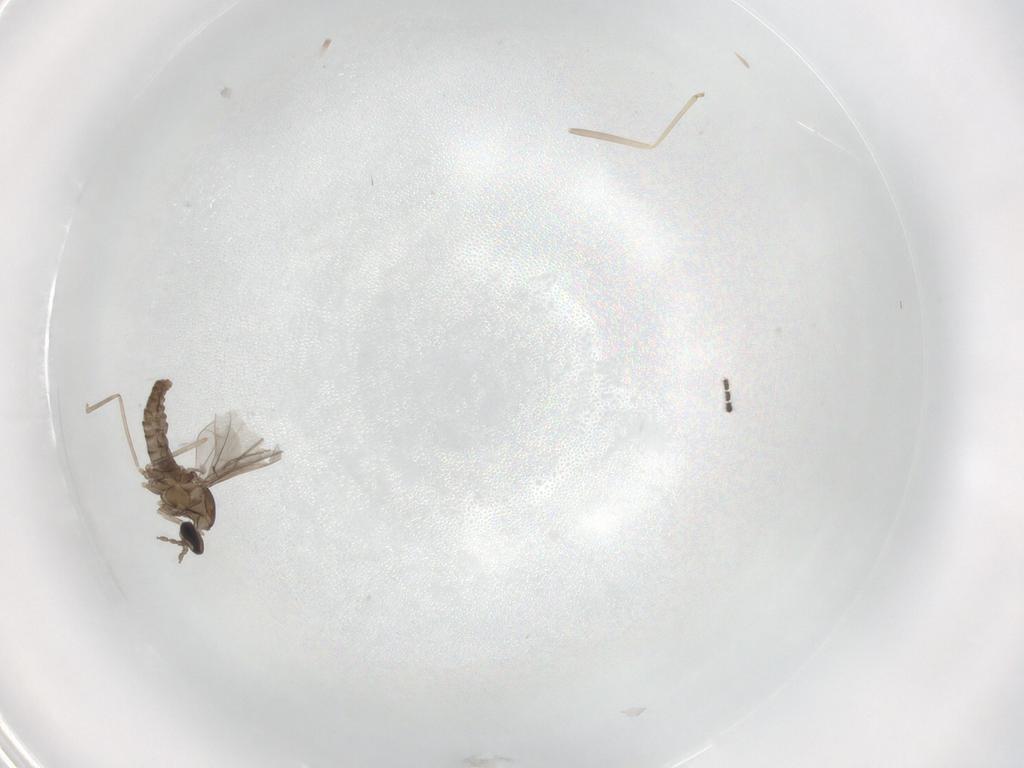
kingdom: Animalia
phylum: Arthropoda
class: Insecta
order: Diptera
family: Cecidomyiidae
